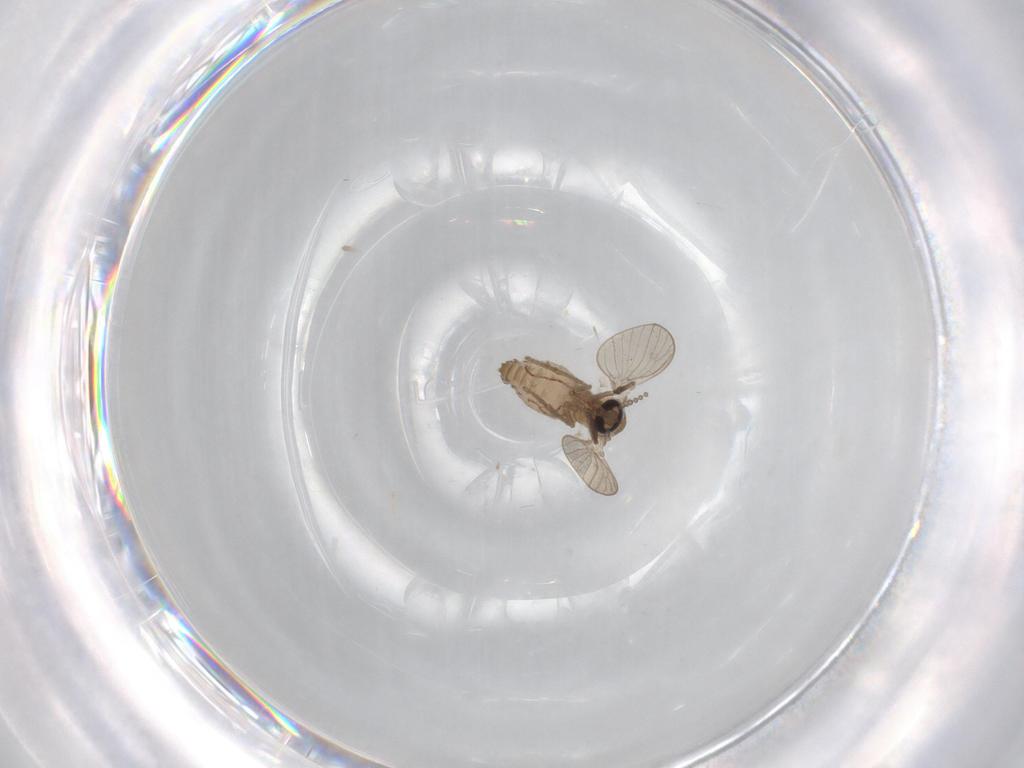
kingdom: Animalia
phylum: Arthropoda
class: Insecta
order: Diptera
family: Psychodidae
